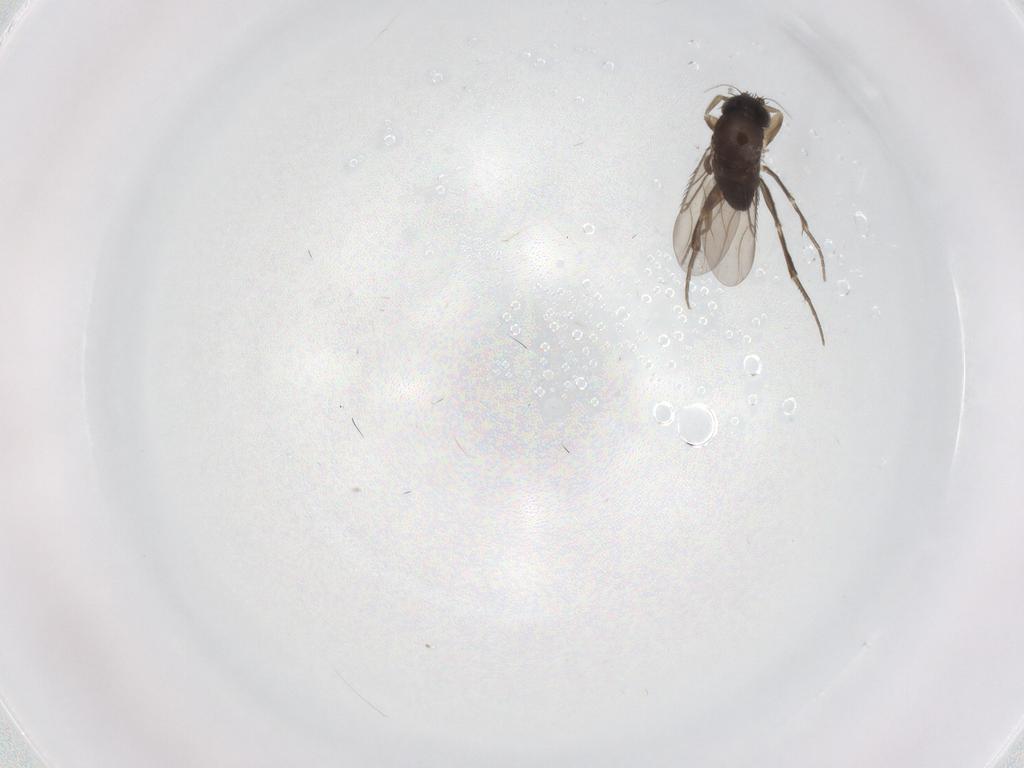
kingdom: Animalia
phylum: Arthropoda
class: Insecta
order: Diptera
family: Phoridae
